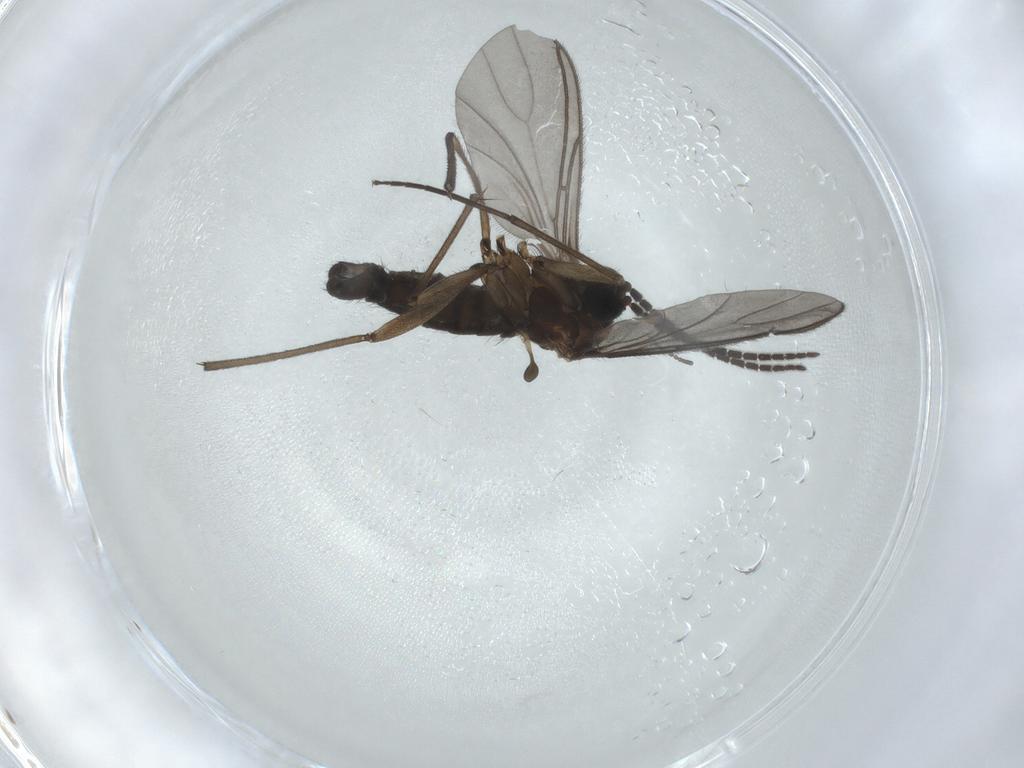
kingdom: Animalia
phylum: Arthropoda
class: Insecta
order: Diptera
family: Sciaridae
